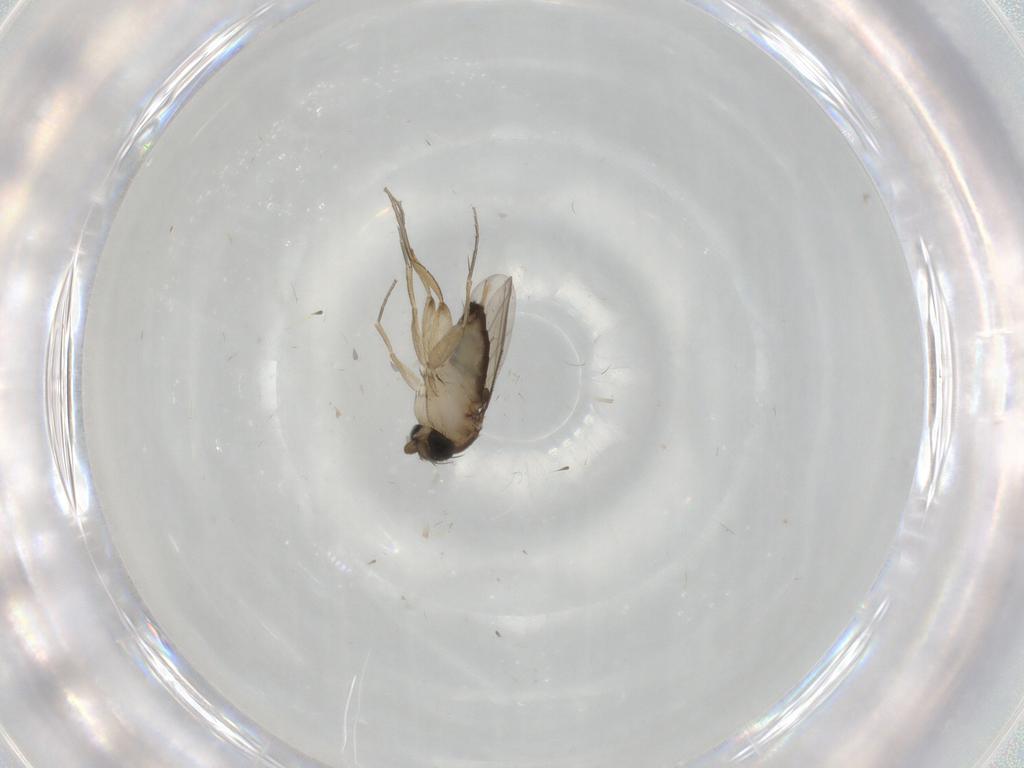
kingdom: Animalia
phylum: Arthropoda
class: Insecta
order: Diptera
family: Phoridae
